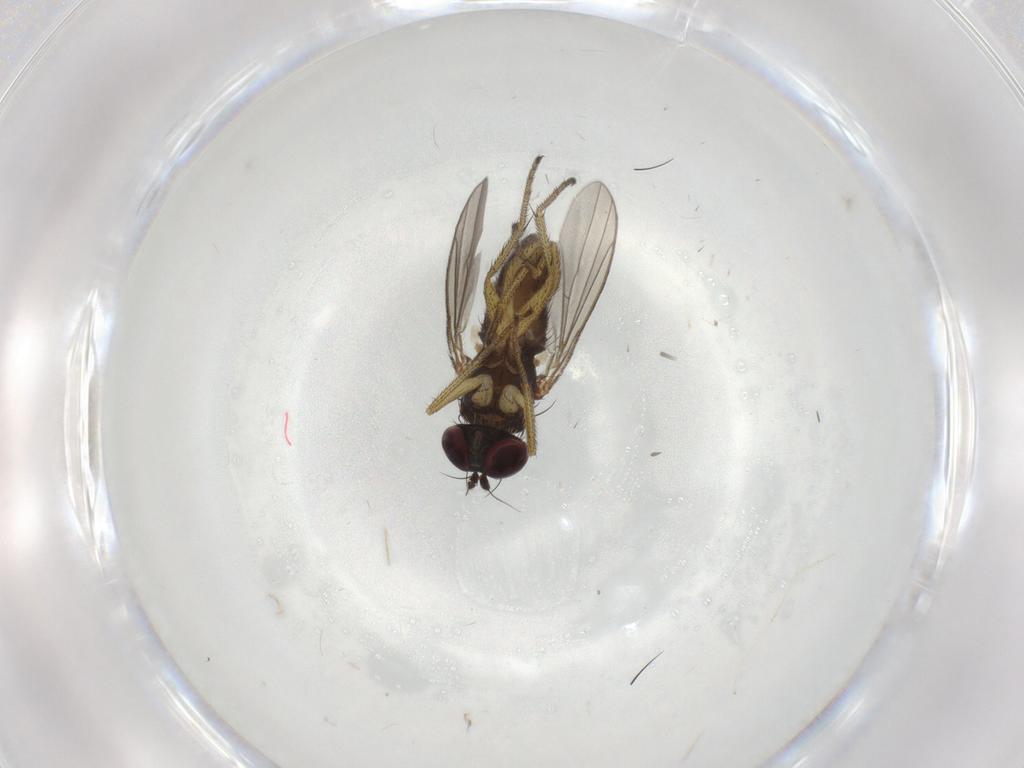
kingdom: Animalia
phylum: Arthropoda
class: Insecta
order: Diptera
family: Dolichopodidae
